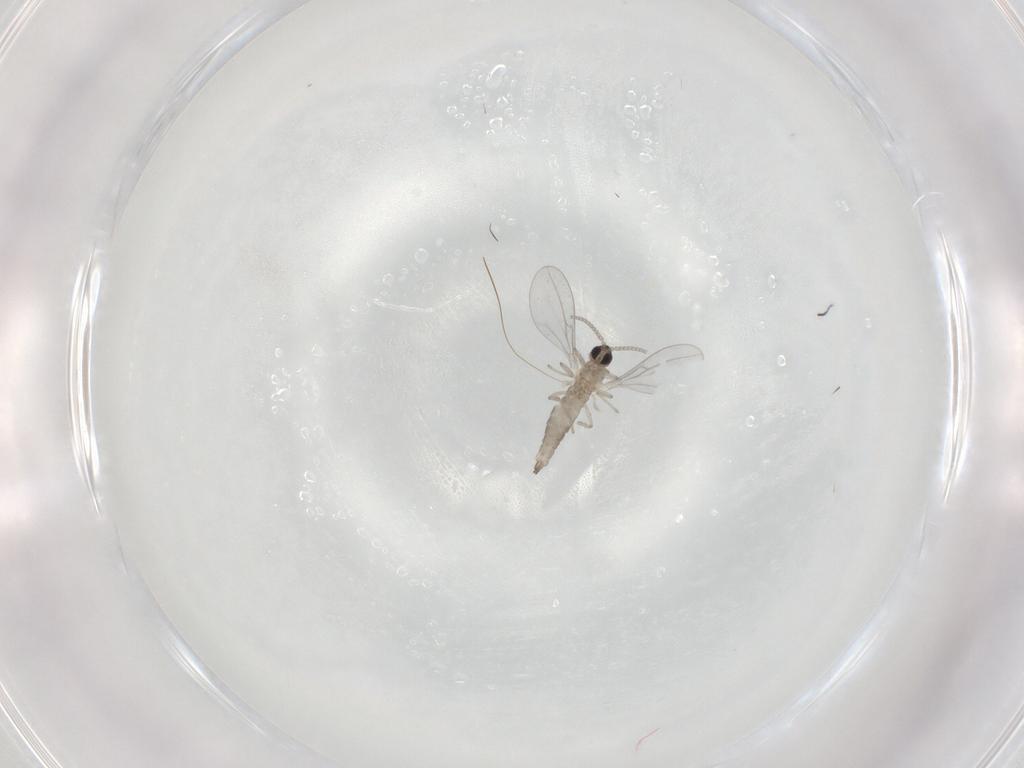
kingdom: Animalia
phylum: Arthropoda
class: Insecta
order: Diptera
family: Cecidomyiidae
